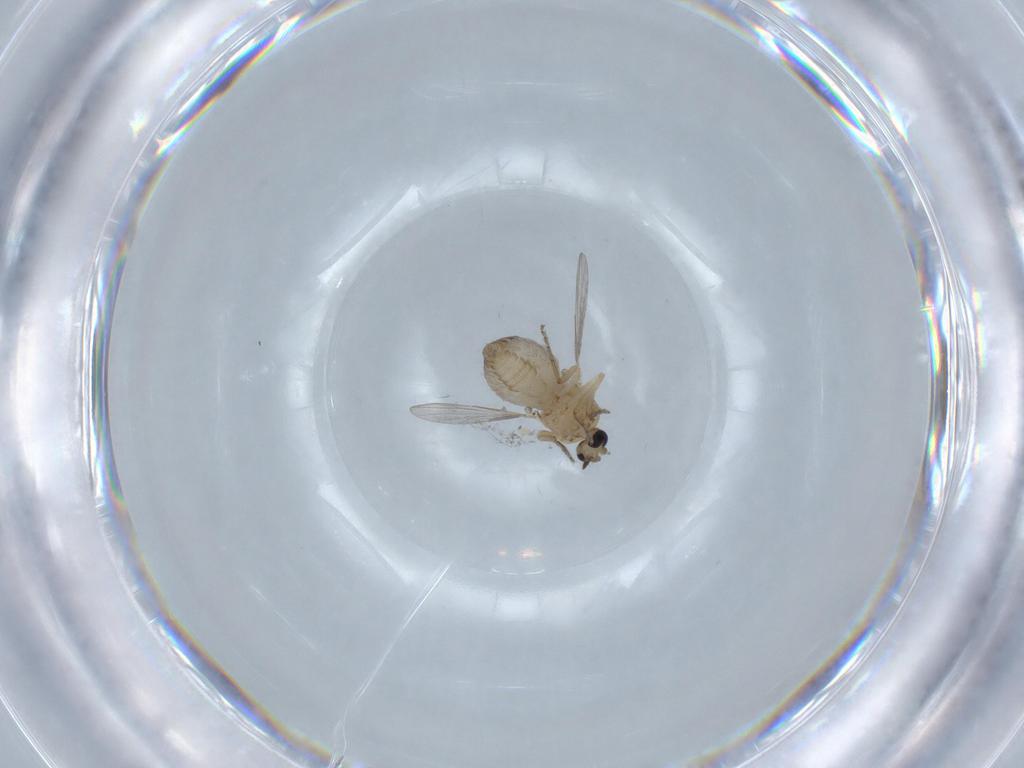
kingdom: Animalia
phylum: Arthropoda
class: Insecta
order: Diptera
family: Ceratopogonidae
